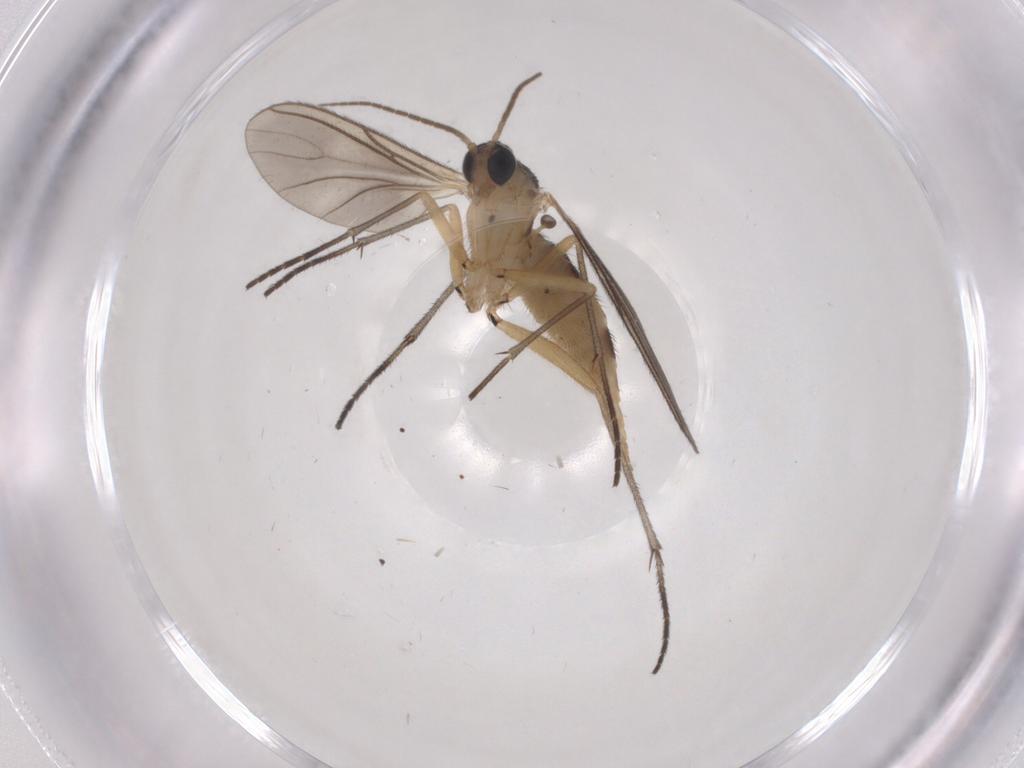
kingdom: Animalia
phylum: Arthropoda
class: Insecta
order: Diptera
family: Sciaridae
